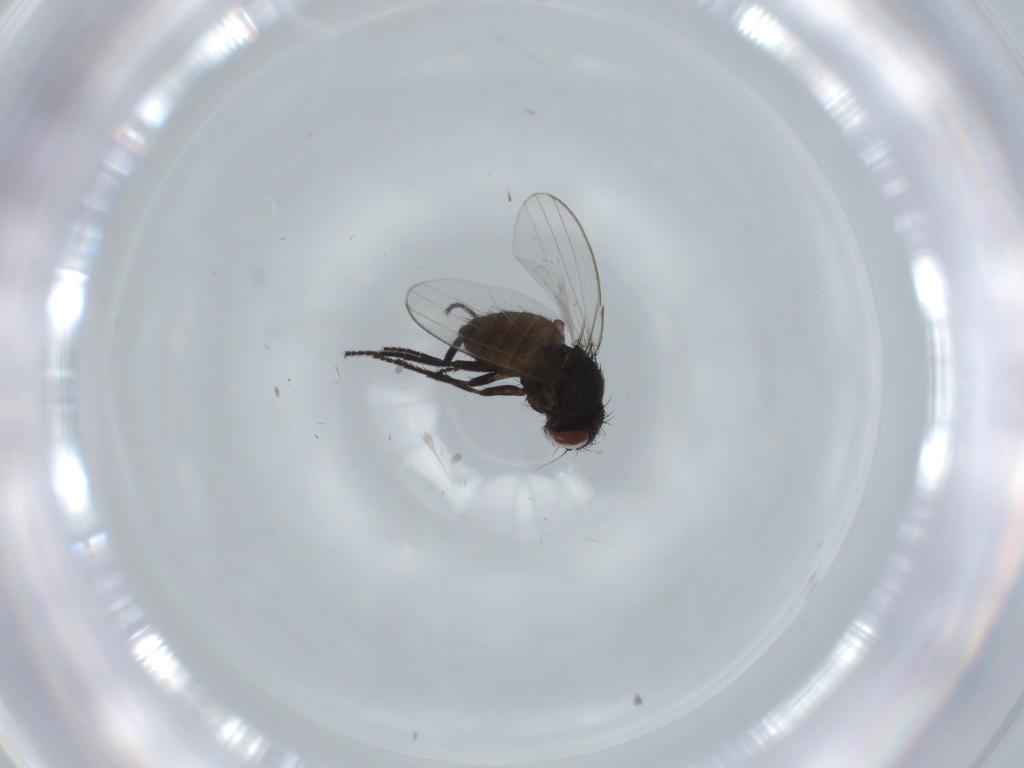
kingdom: Animalia
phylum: Arthropoda
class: Insecta
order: Diptera
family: Milichiidae
